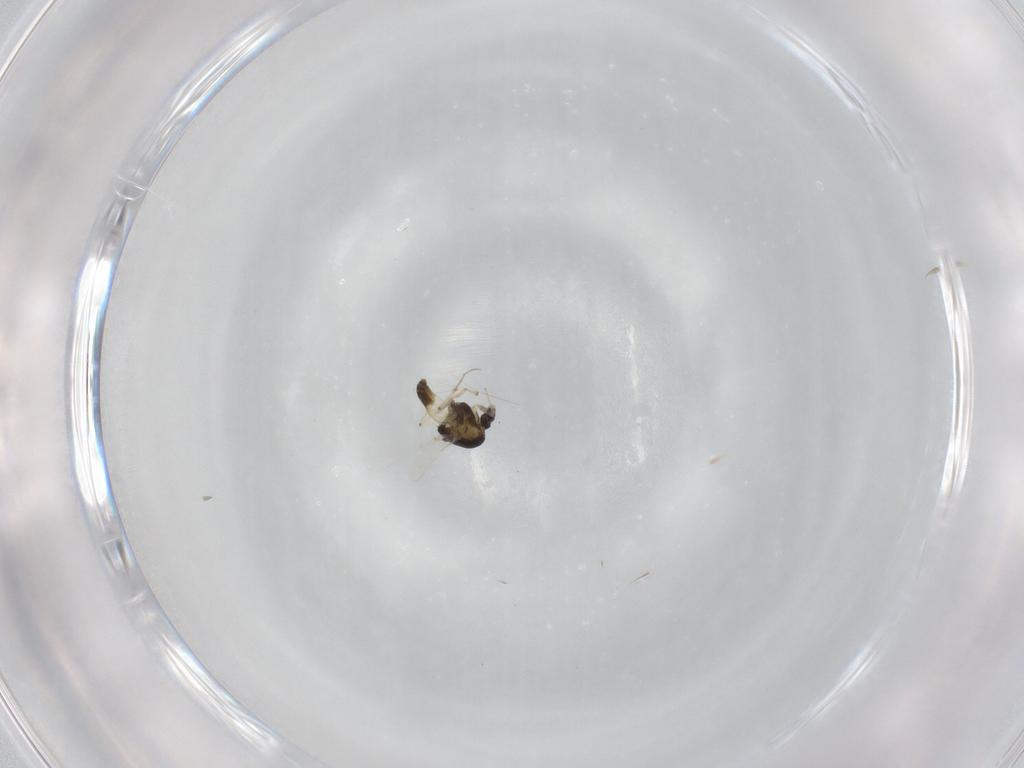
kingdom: Animalia
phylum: Arthropoda
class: Insecta
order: Diptera
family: Chironomidae
